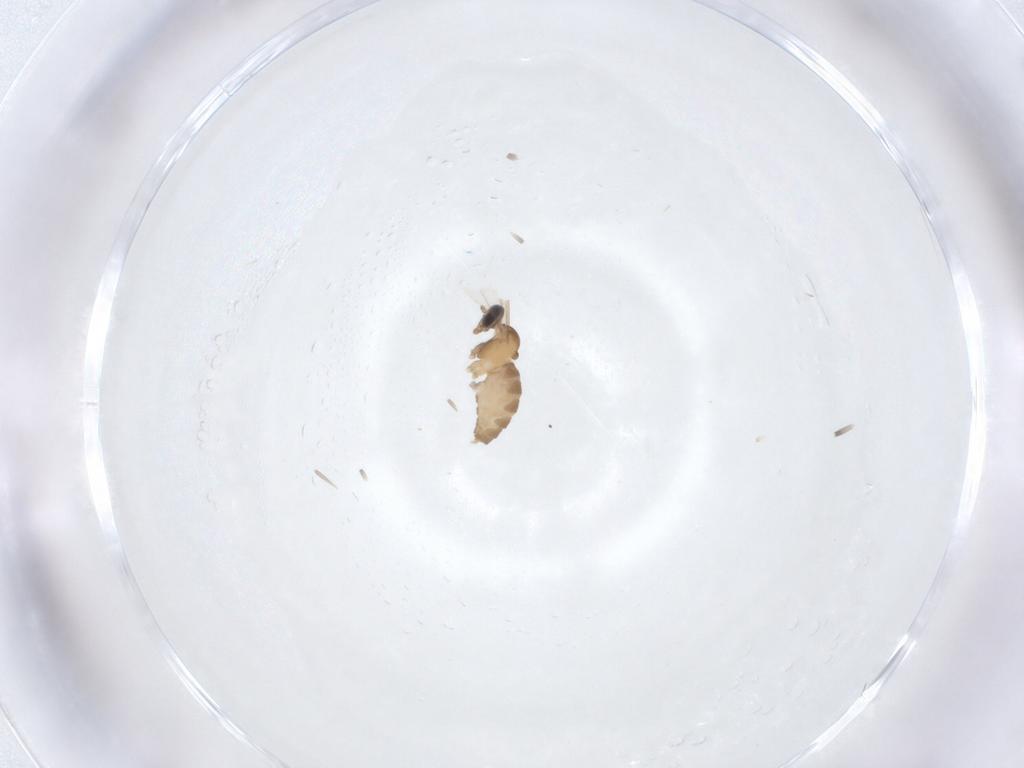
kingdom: Animalia
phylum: Arthropoda
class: Insecta
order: Diptera
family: Cecidomyiidae
